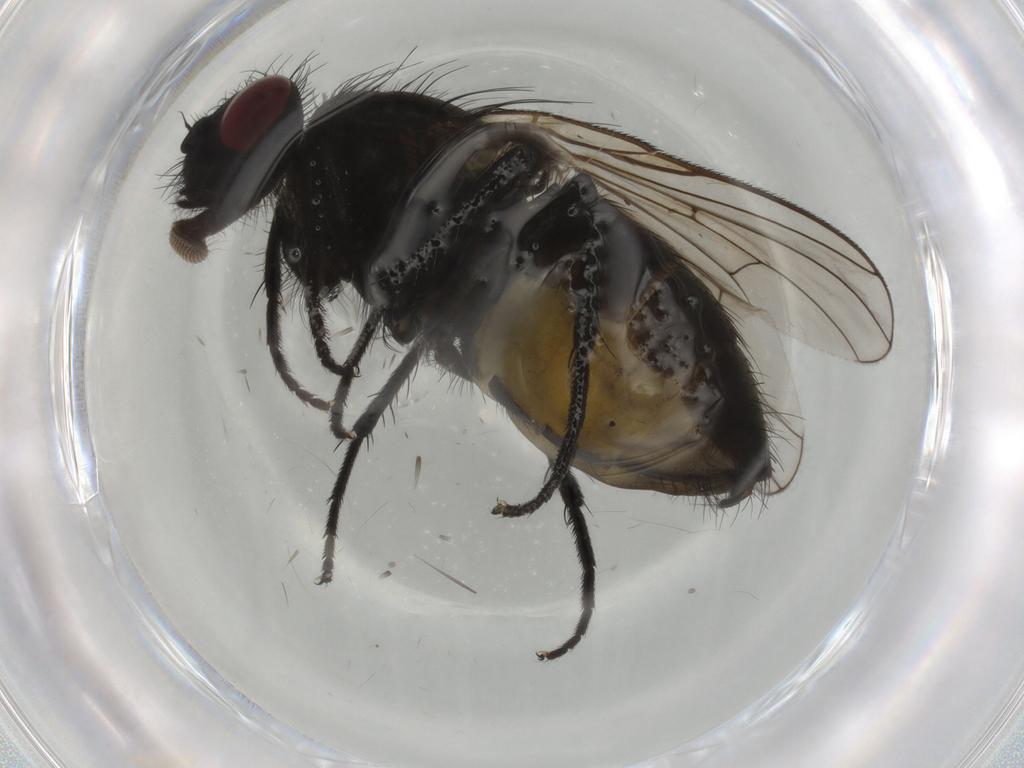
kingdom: Animalia
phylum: Arthropoda
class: Insecta
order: Diptera
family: Muscidae
